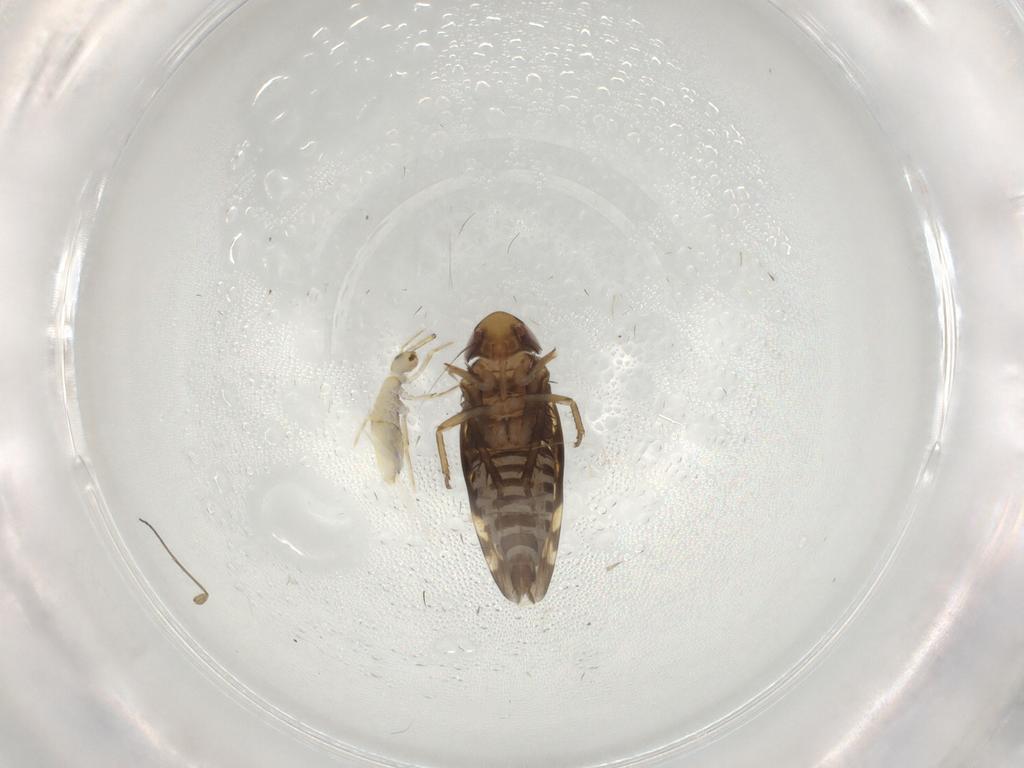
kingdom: Animalia
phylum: Arthropoda
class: Insecta
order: Hemiptera
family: Cicadellidae
